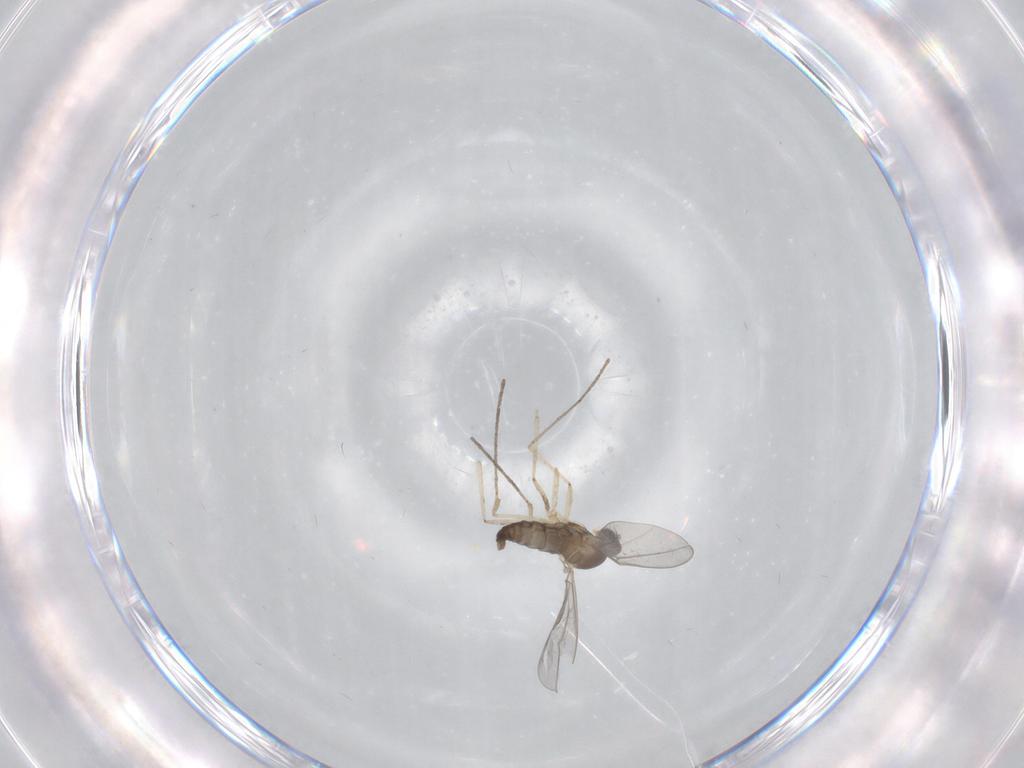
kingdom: Animalia
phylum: Arthropoda
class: Insecta
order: Diptera
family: Cecidomyiidae
